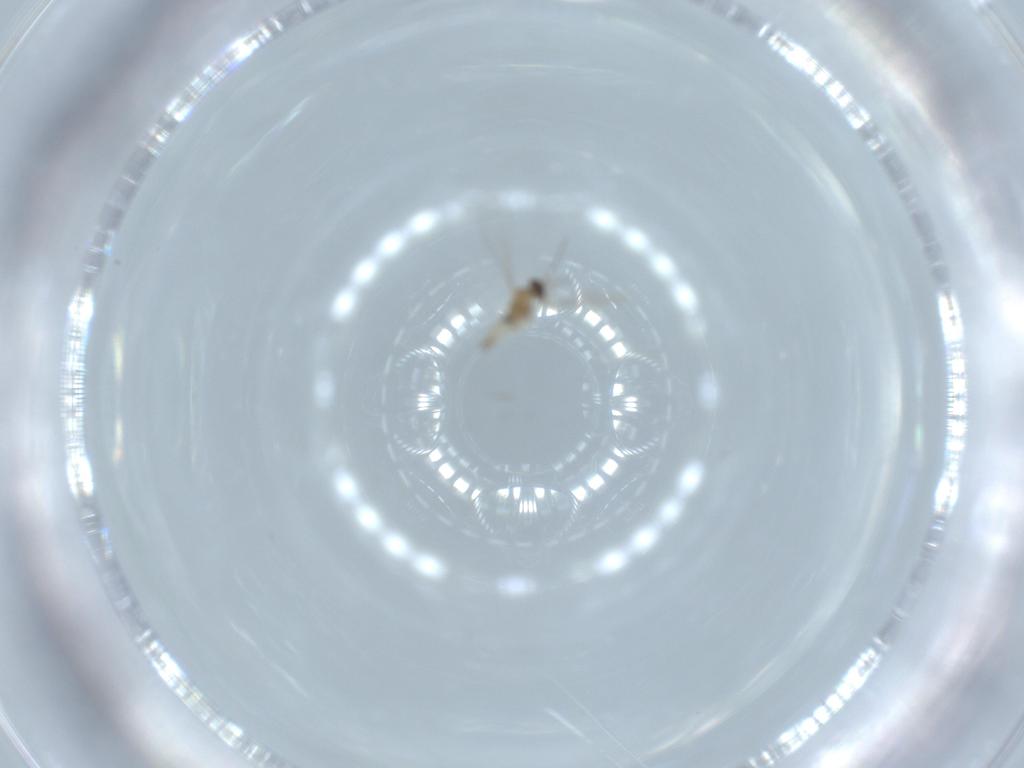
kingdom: Animalia
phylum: Arthropoda
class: Insecta
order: Diptera
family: Cecidomyiidae
